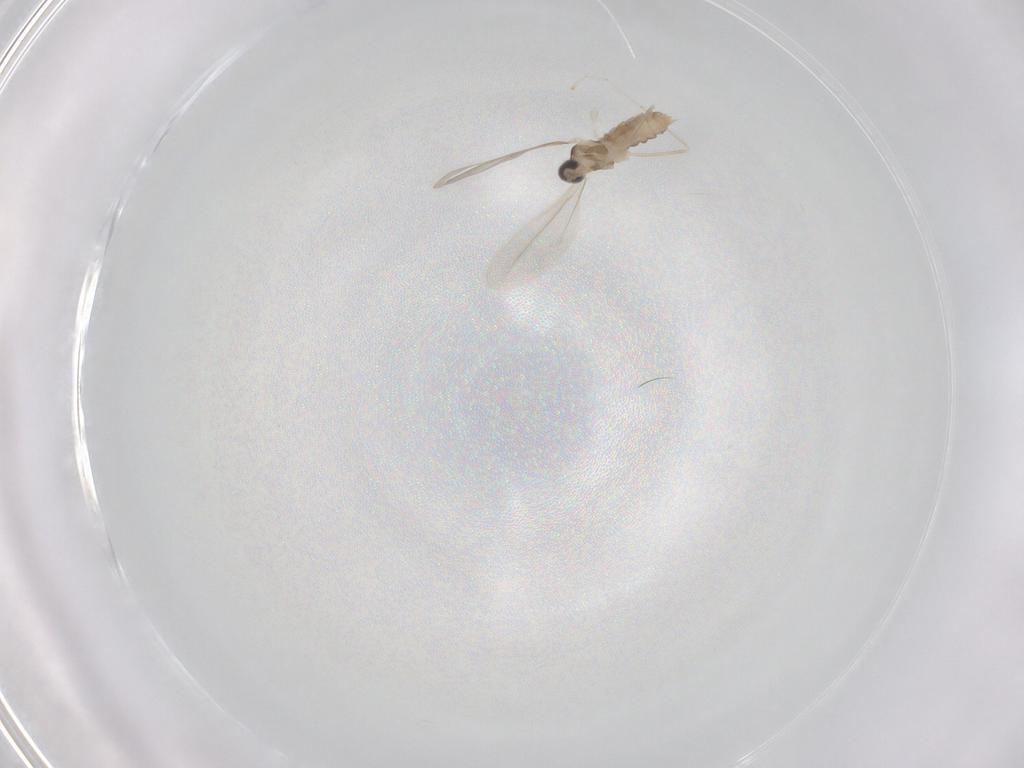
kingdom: Animalia
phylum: Arthropoda
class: Insecta
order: Diptera
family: Cecidomyiidae
